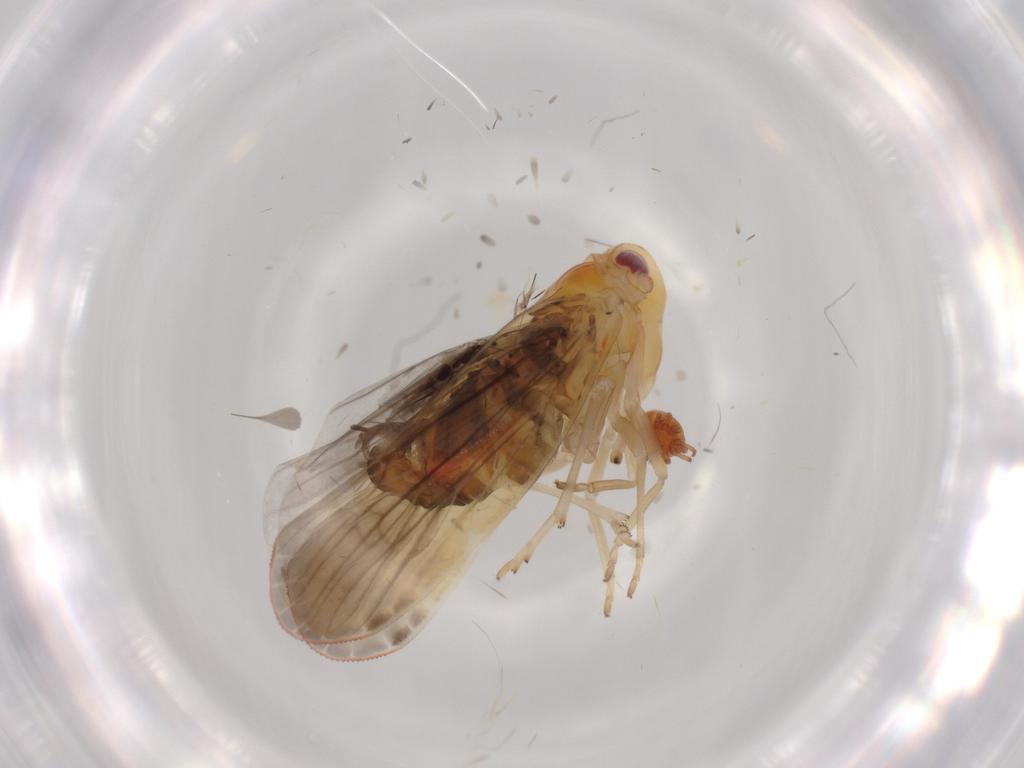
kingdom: Animalia
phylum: Arthropoda
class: Insecta
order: Hemiptera
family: Derbidae
